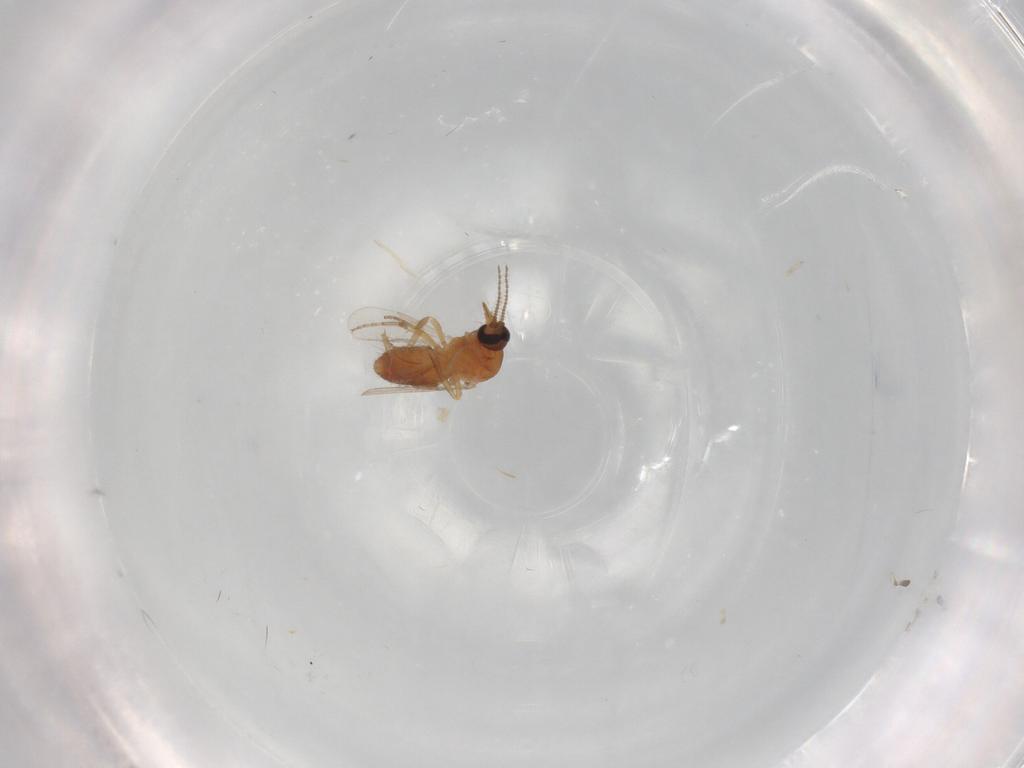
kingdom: Animalia
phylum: Arthropoda
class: Insecta
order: Diptera
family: Ceratopogonidae
